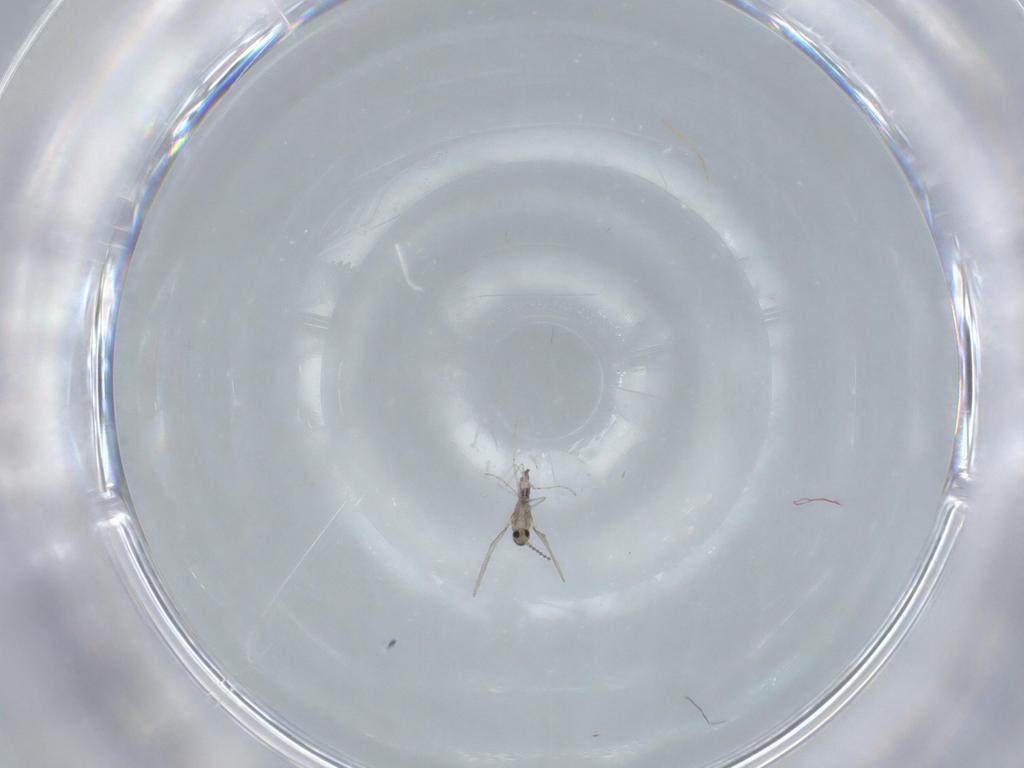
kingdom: Animalia
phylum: Arthropoda
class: Insecta
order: Diptera
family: Cecidomyiidae
